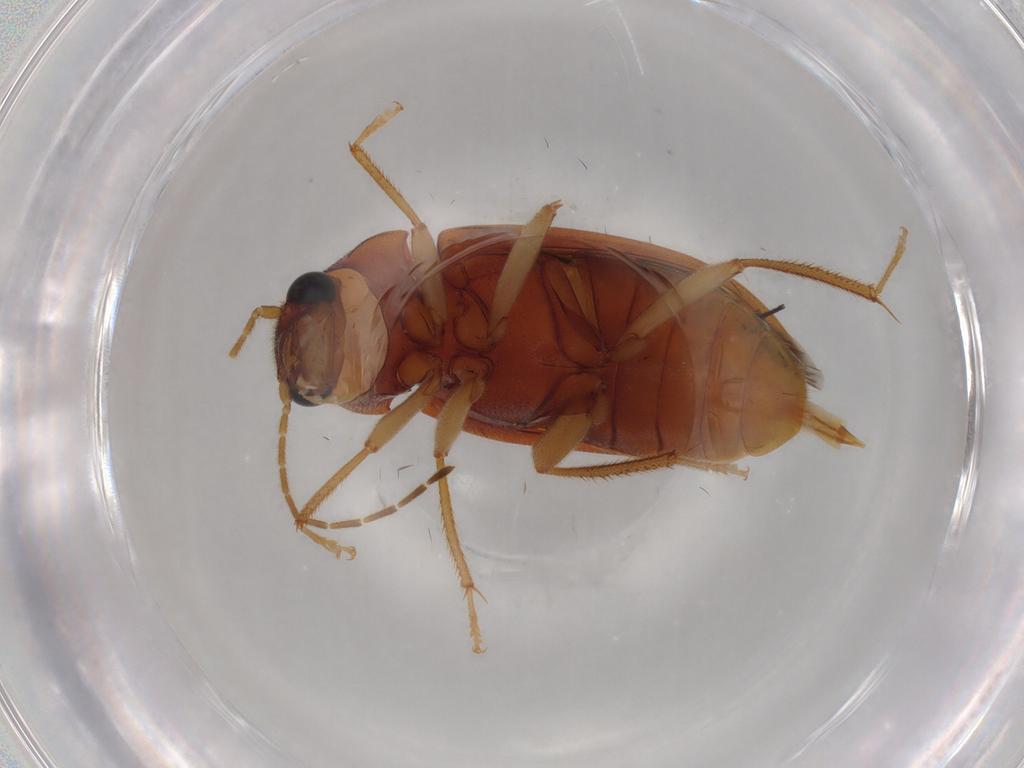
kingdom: Animalia
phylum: Arthropoda
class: Insecta
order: Coleoptera
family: Ptilodactylidae
